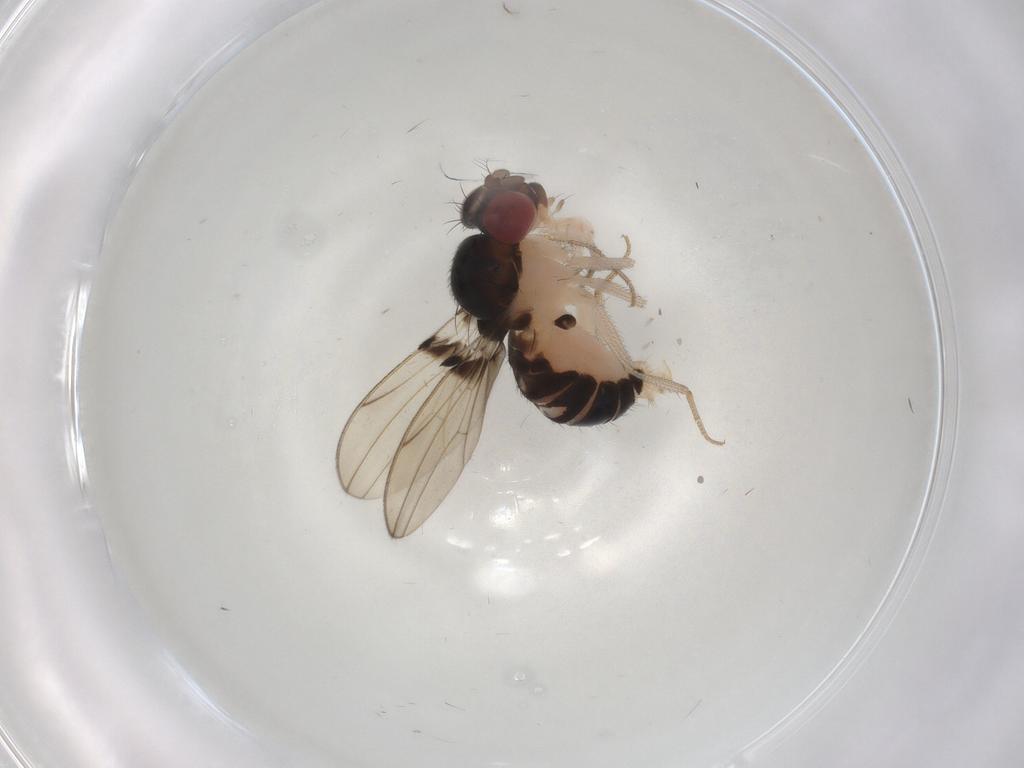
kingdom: Animalia
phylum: Arthropoda
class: Insecta
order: Diptera
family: Drosophilidae
